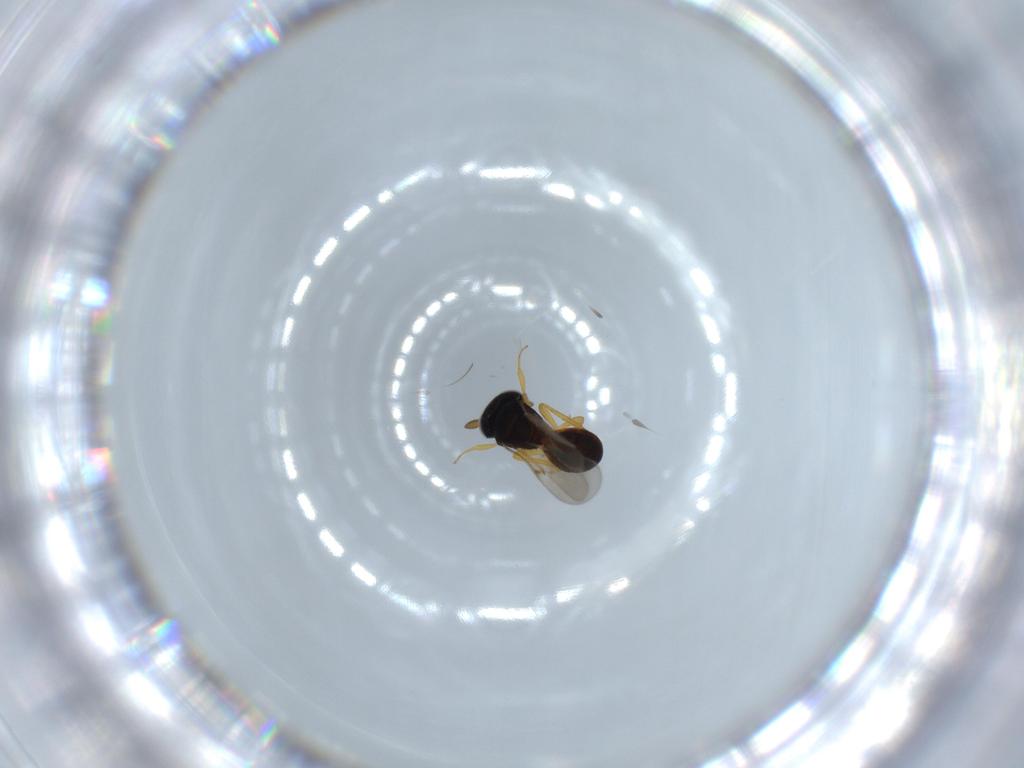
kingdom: Animalia
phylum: Arthropoda
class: Insecta
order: Hymenoptera
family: Scelionidae
